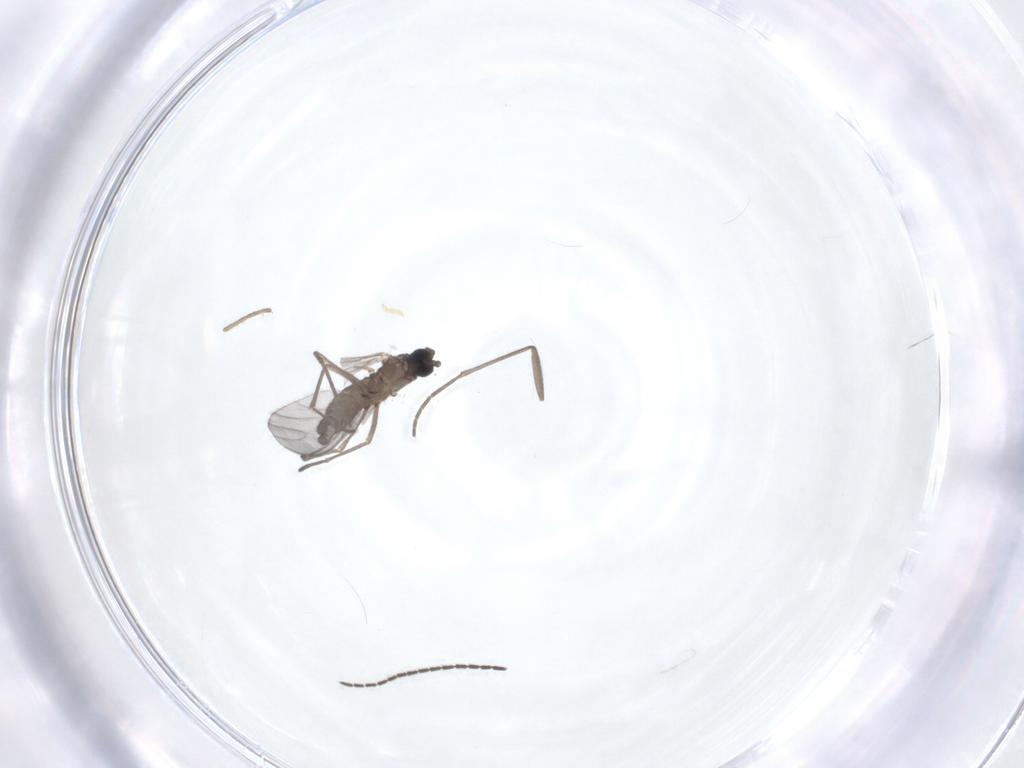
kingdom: Animalia
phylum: Arthropoda
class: Insecta
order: Diptera
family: Sciaridae
